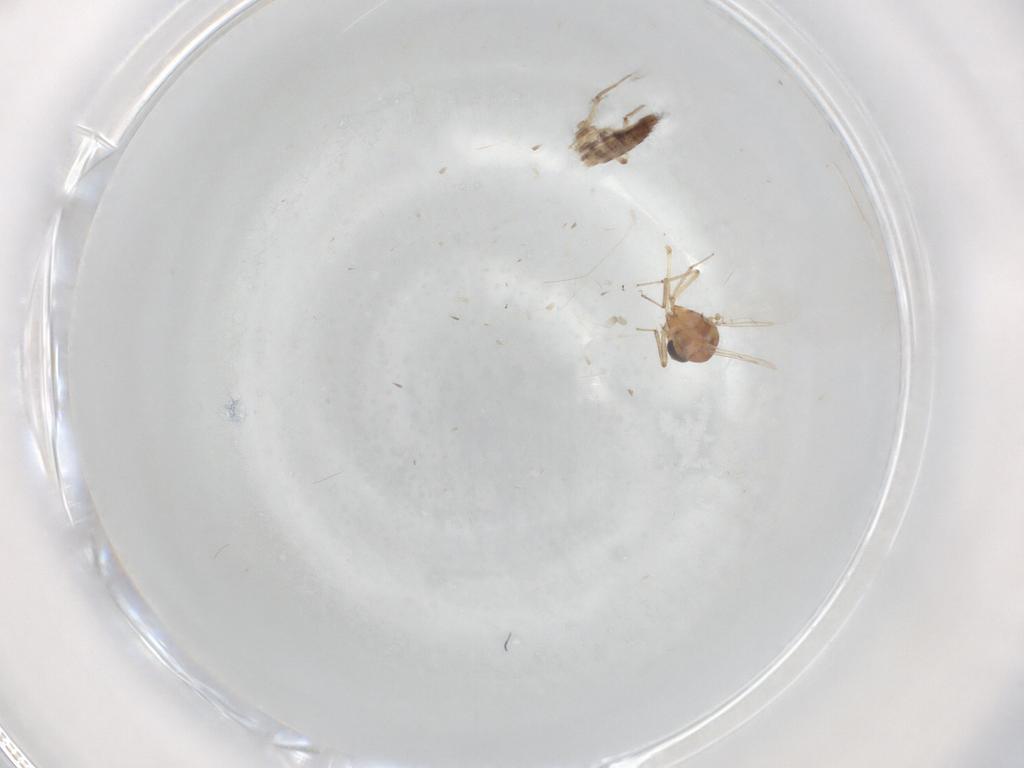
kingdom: Animalia
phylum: Arthropoda
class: Insecta
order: Diptera
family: Ceratopogonidae
